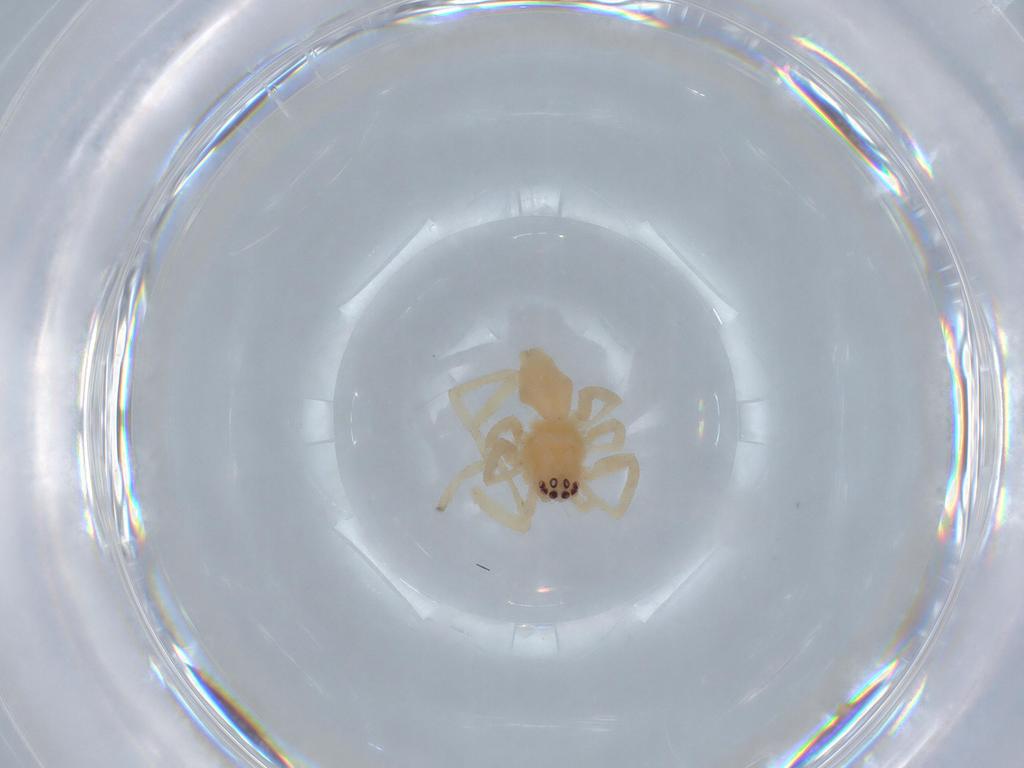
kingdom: Animalia
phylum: Arthropoda
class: Arachnida
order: Araneae
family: Cheiracanthiidae
